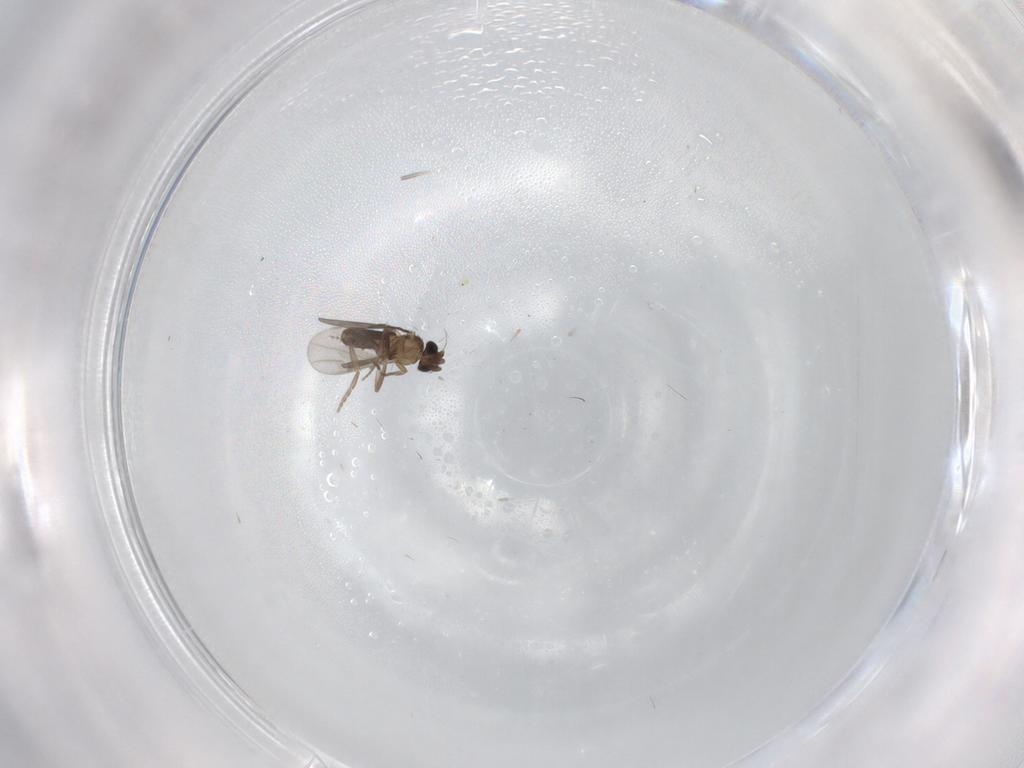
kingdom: Animalia
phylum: Arthropoda
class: Insecta
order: Diptera
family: Cecidomyiidae
